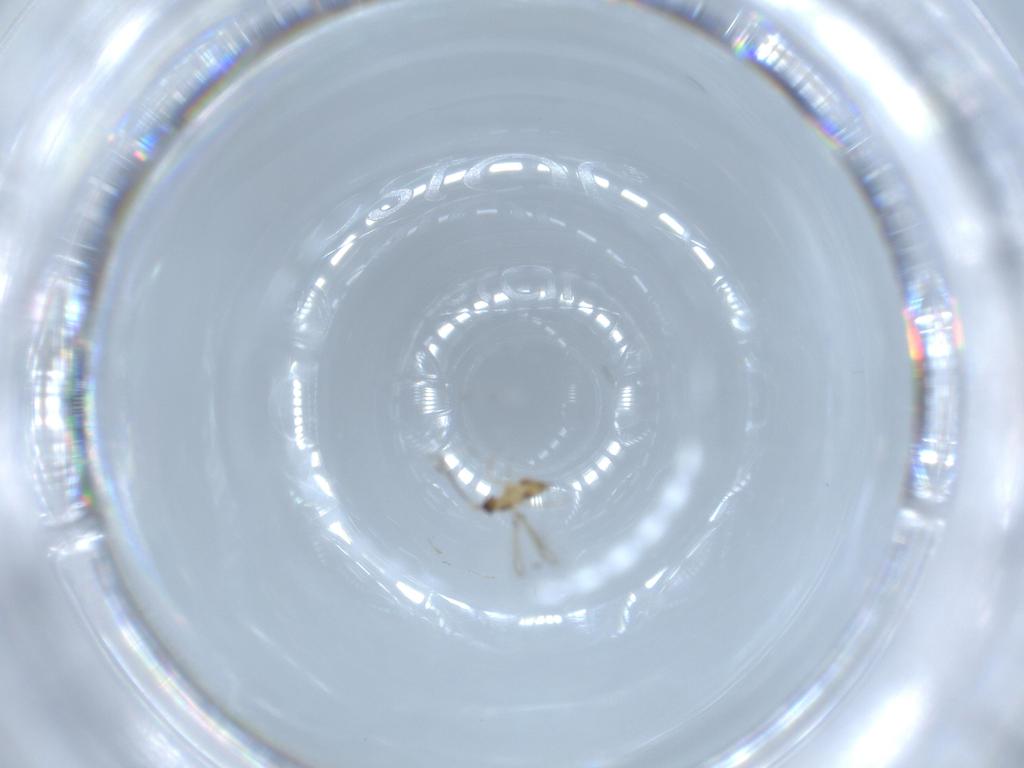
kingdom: Animalia
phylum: Arthropoda
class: Insecta
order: Hymenoptera
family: Mymaridae
